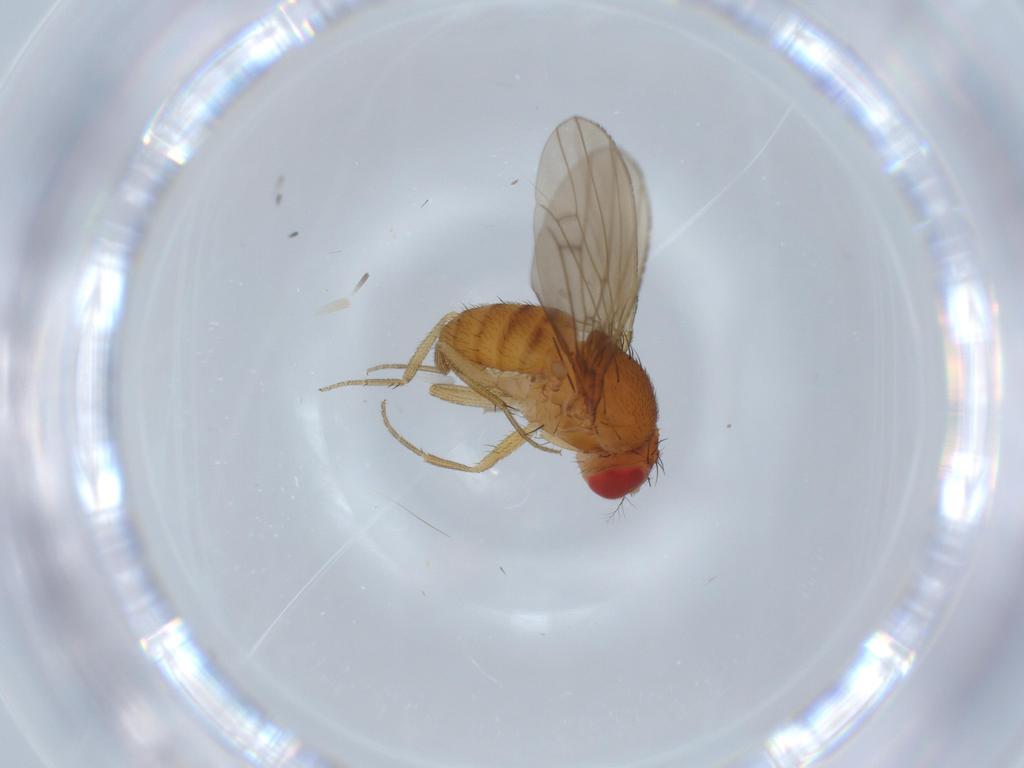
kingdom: Animalia
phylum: Arthropoda
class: Insecta
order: Diptera
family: Drosophilidae
